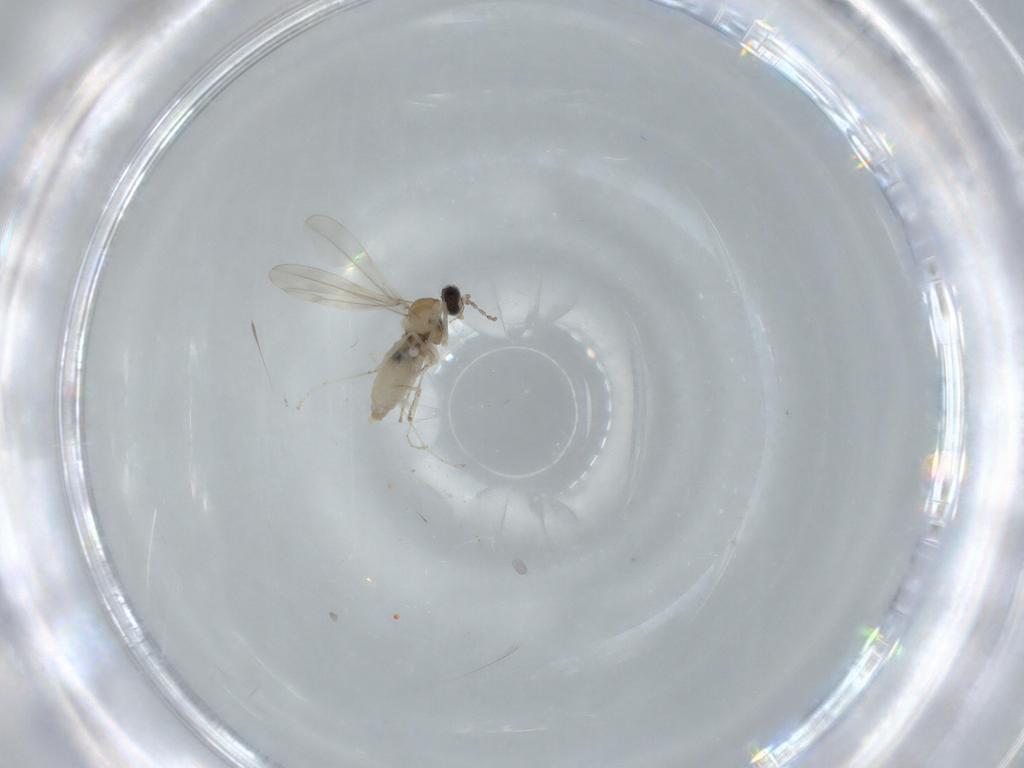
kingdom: Animalia
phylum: Arthropoda
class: Insecta
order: Diptera
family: Cecidomyiidae
